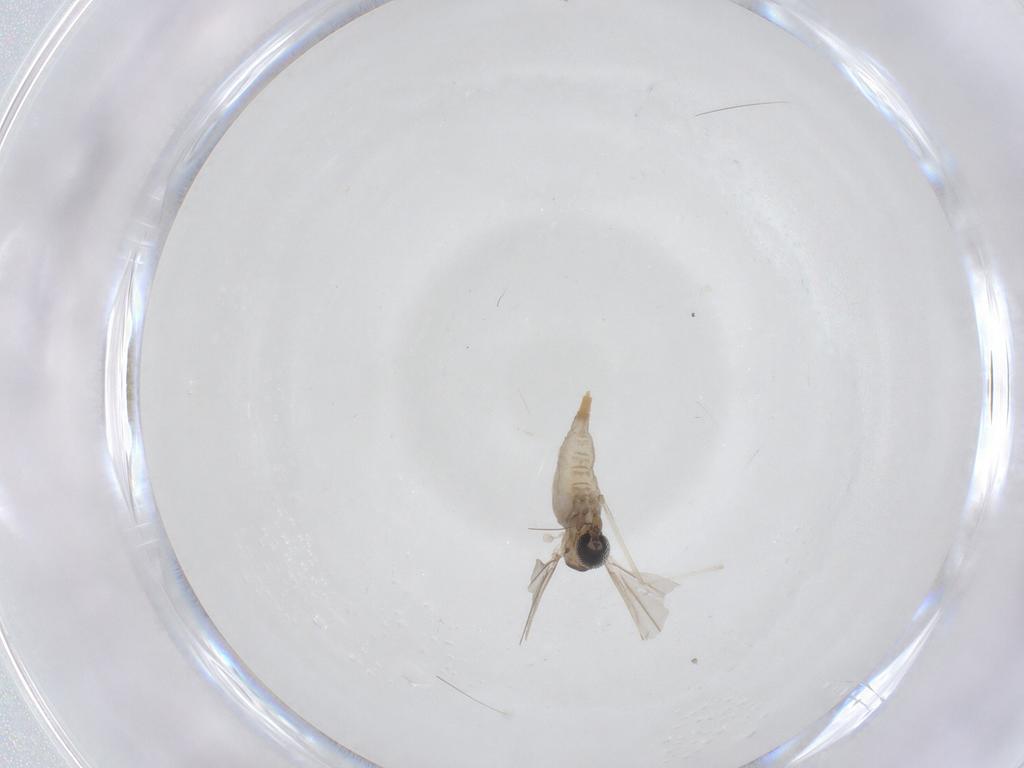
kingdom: Animalia
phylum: Arthropoda
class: Insecta
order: Diptera
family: Cecidomyiidae
